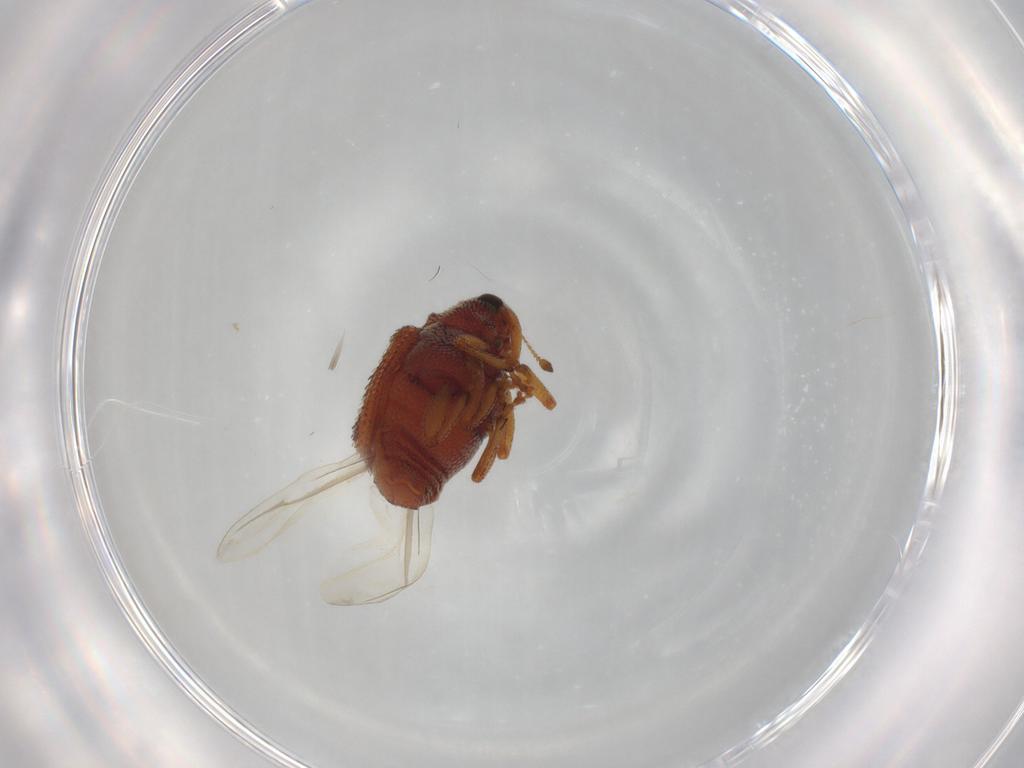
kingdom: Animalia
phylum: Arthropoda
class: Insecta
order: Coleoptera
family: Curculionidae
